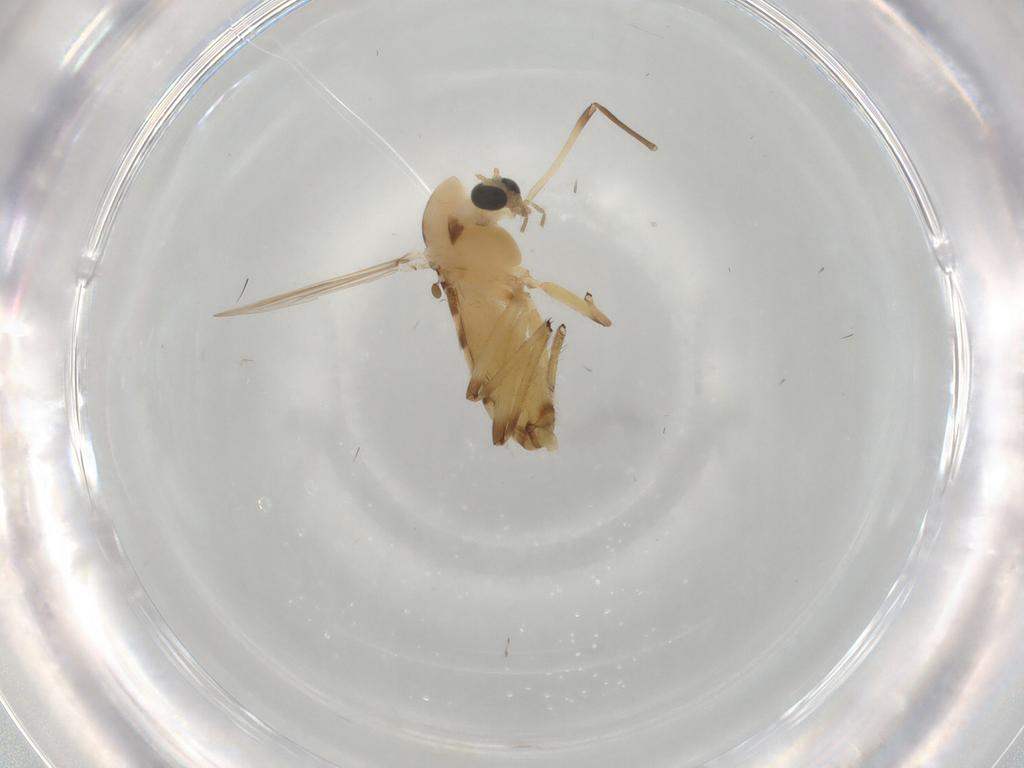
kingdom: Animalia
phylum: Arthropoda
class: Insecta
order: Diptera
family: Chironomidae
